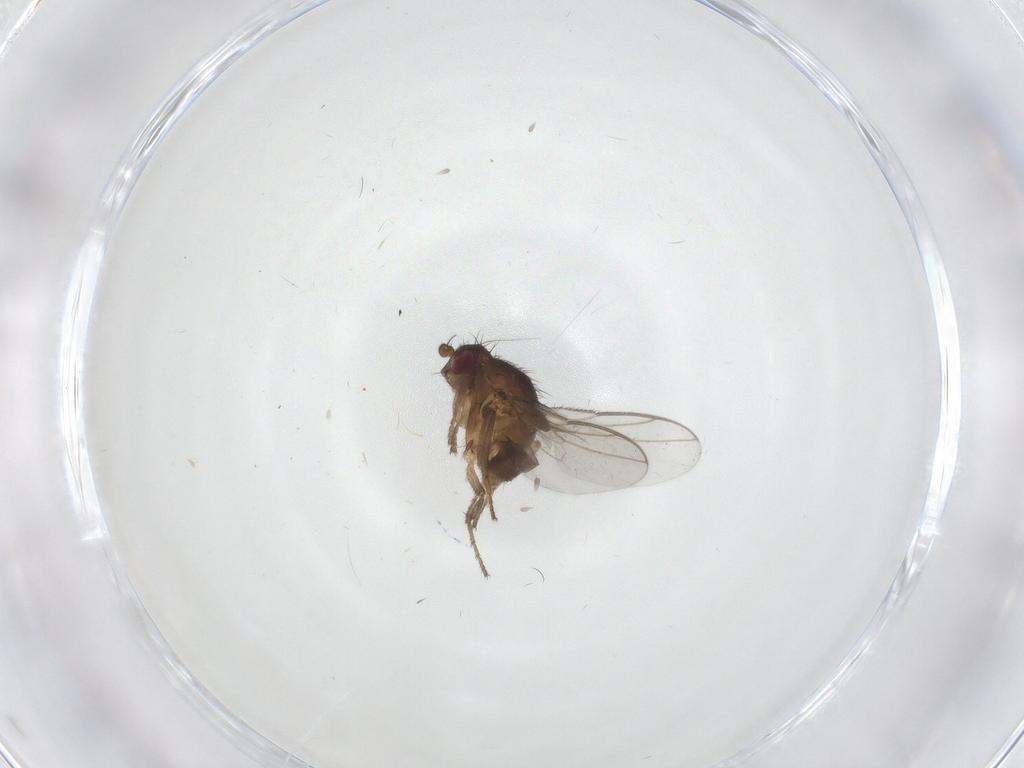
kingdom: Animalia
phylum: Arthropoda
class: Insecta
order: Diptera
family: Sphaeroceridae
